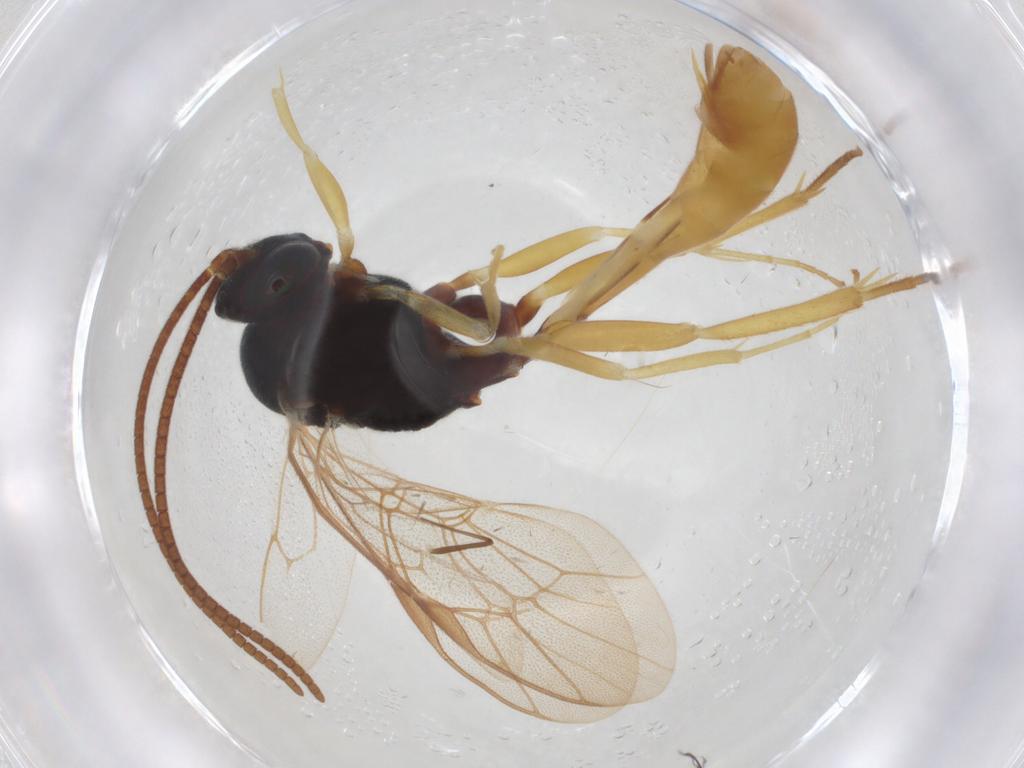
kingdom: Animalia
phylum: Arthropoda
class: Insecta
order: Hymenoptera
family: Ichneumonidae
